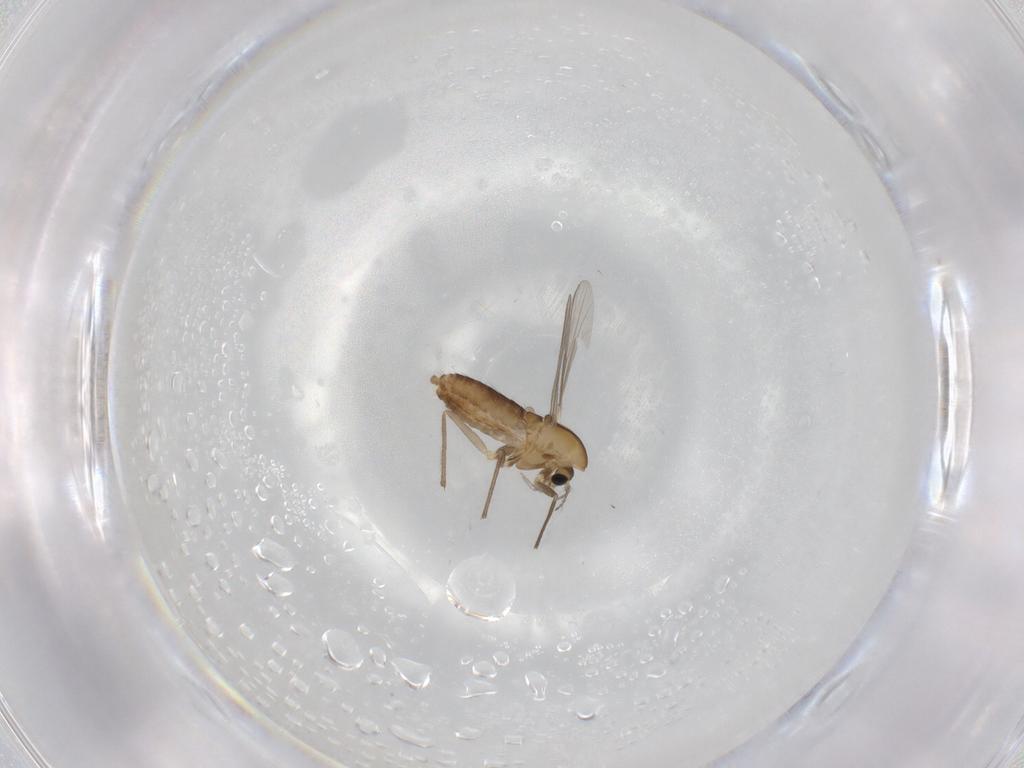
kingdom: Animalia
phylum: Arthropoda
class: Insecta
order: Diptera
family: Chironomidae
